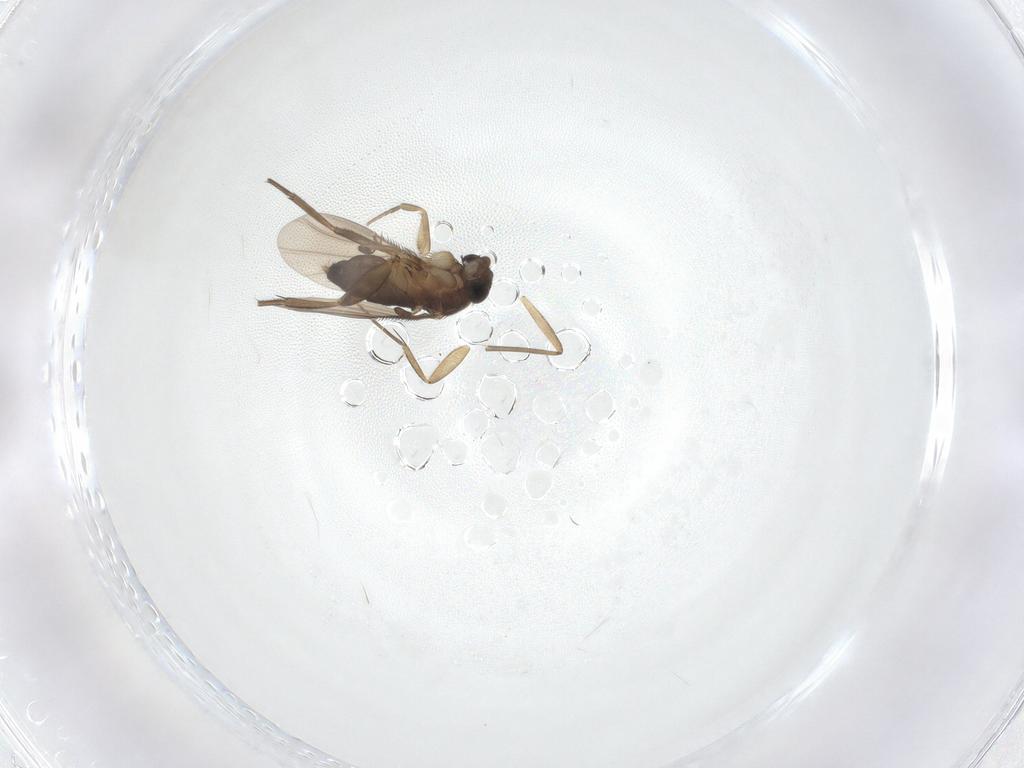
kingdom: Animalia
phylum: Arthropoda
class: Insecta
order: Diptera
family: Phoridae
